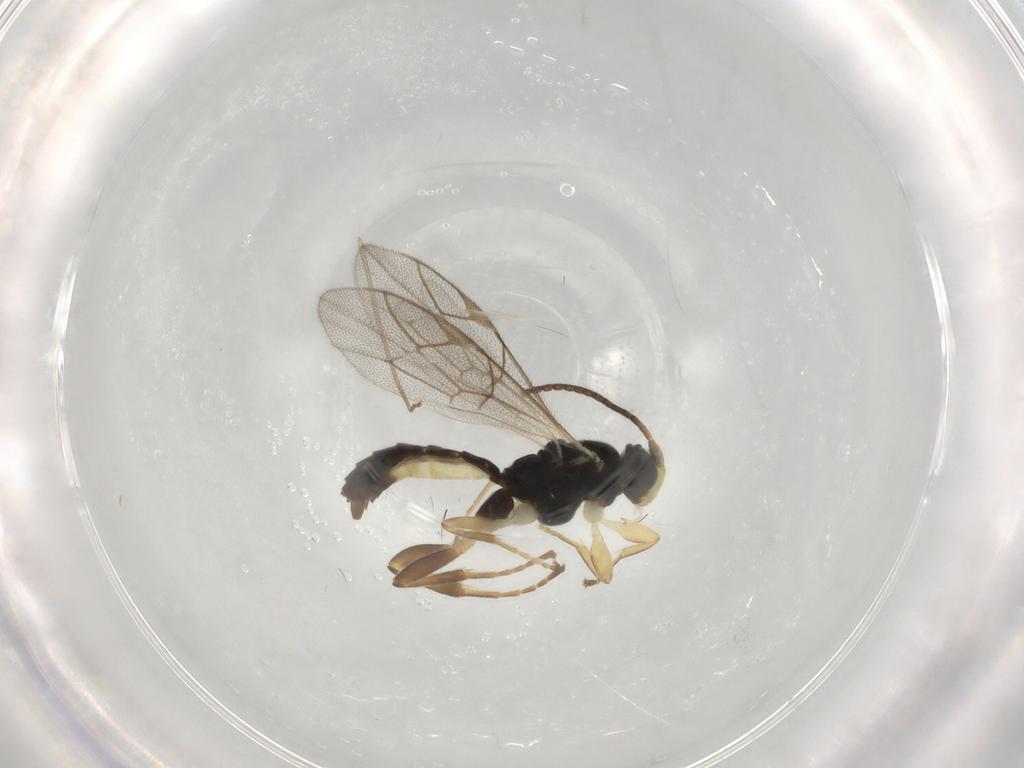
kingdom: Animalia
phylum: Arthropoda
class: Insecta
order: Hymenoptera
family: Ichneumonidae
